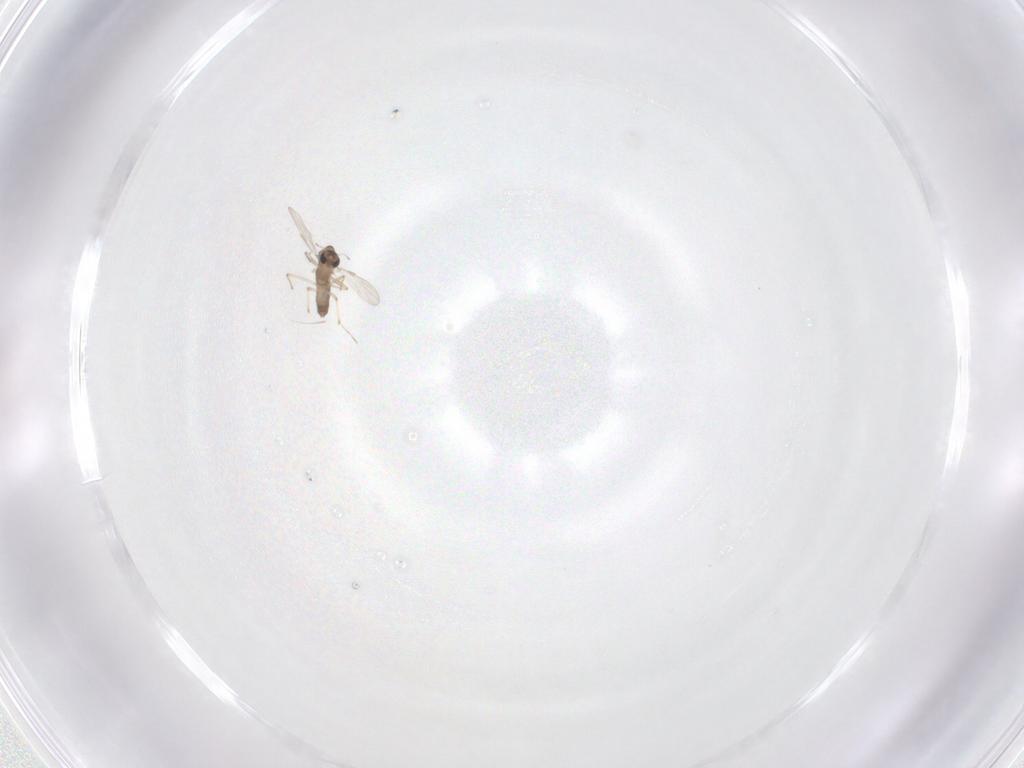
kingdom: Animalia
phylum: Arthropoda
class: Insecta
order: Diptera
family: Chironomidae
